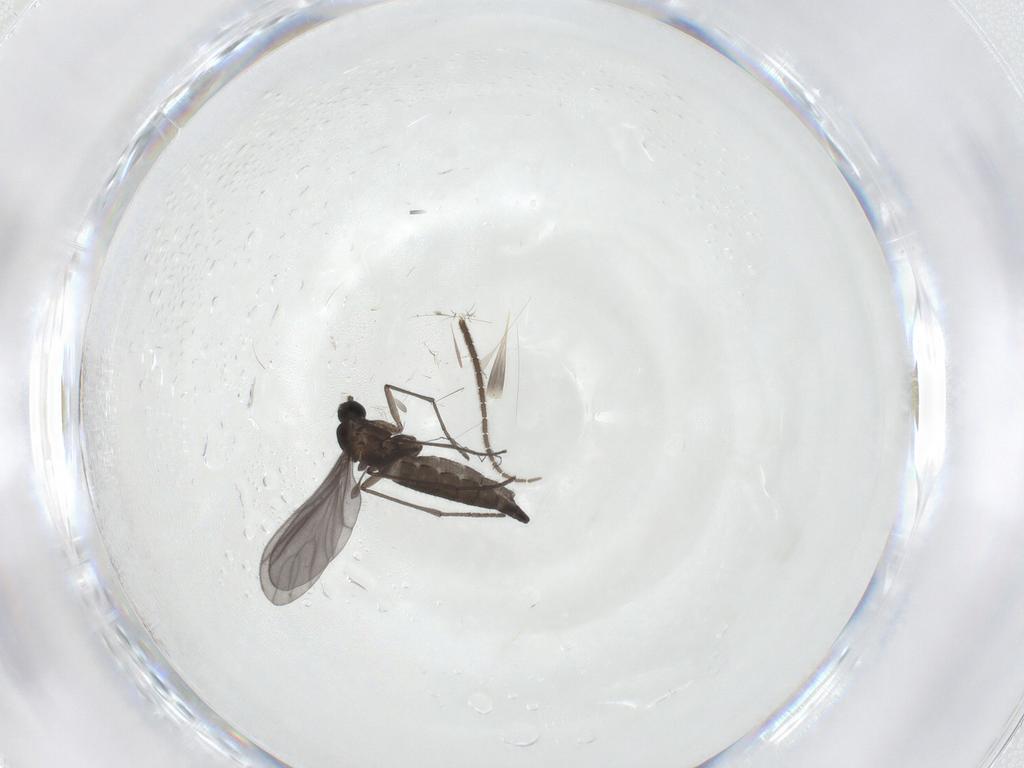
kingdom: Animalia
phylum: Arthropoda
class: Insecta
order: Diptera
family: Sciaridae
